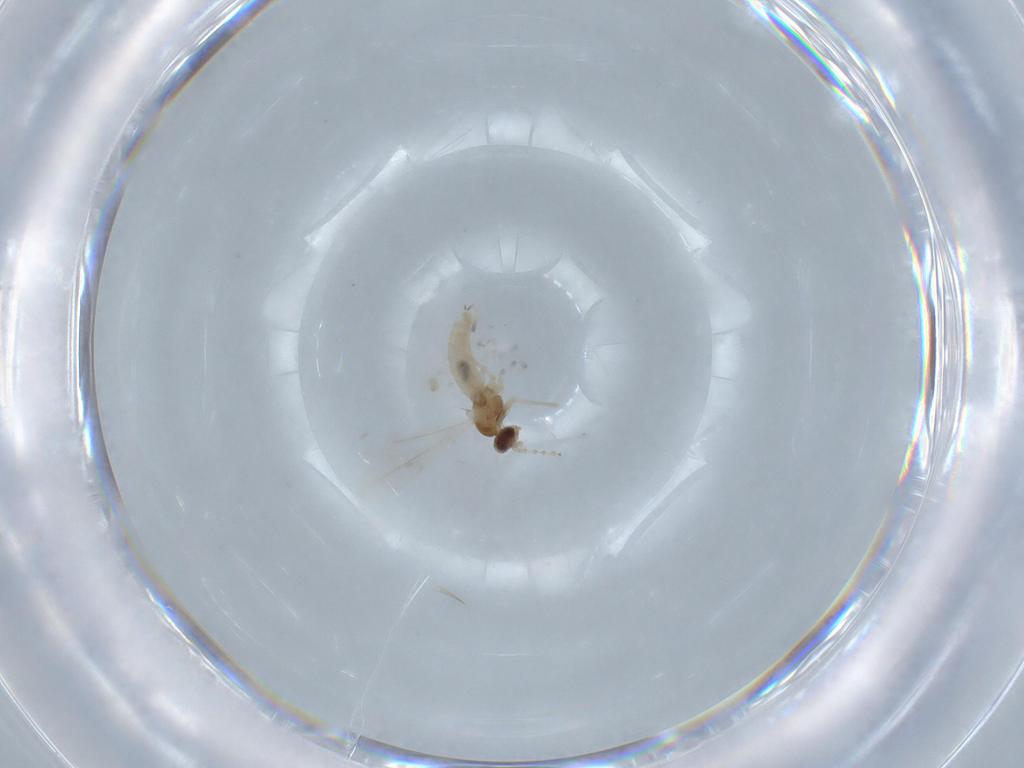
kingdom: Animalia
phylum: Arthropoda
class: Insecta
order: Diptera
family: Cecidomyiidae
